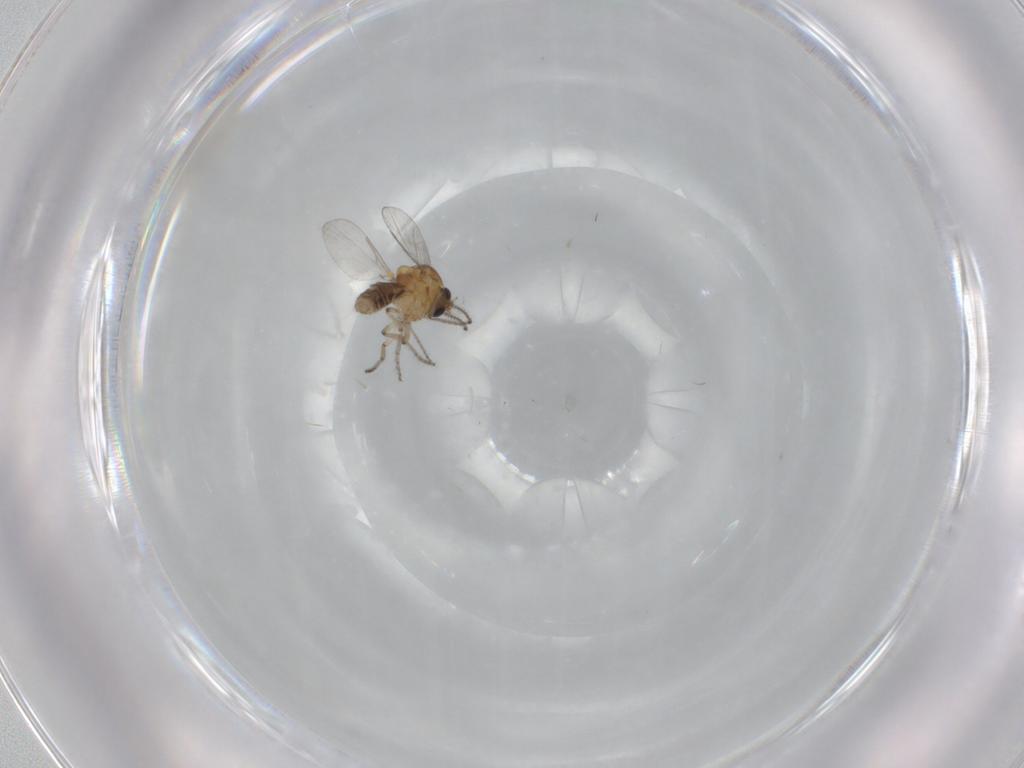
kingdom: Animalia
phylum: Arthropoda
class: Insecta
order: Diptera
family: Ceratopogonidae
